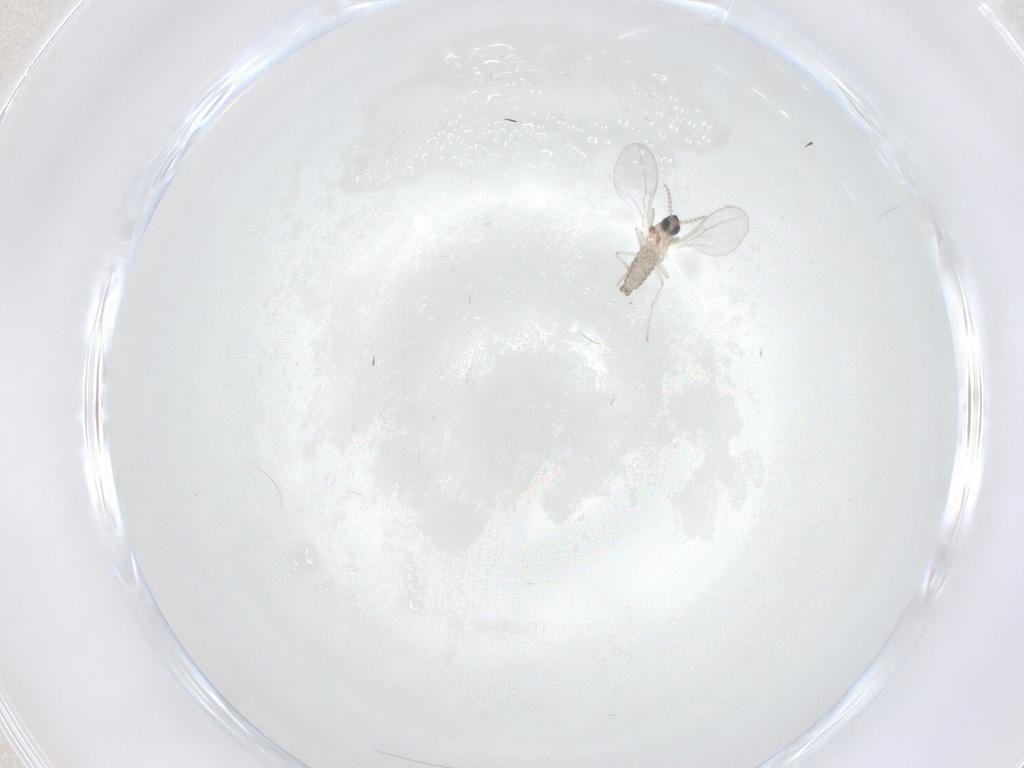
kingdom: Animalia
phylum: Arthropoda
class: Insecta
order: Diptera
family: Cecidomyiidae
